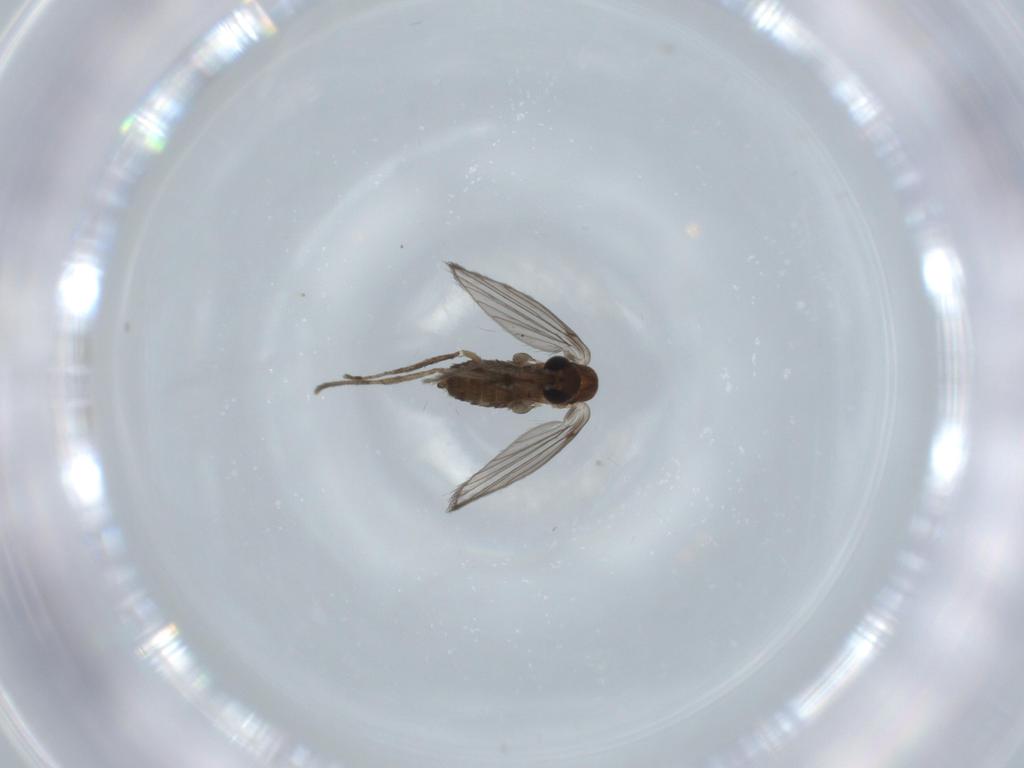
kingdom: Animalia
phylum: Arthropoda
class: Insecta
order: Diptera
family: Psychodidae
